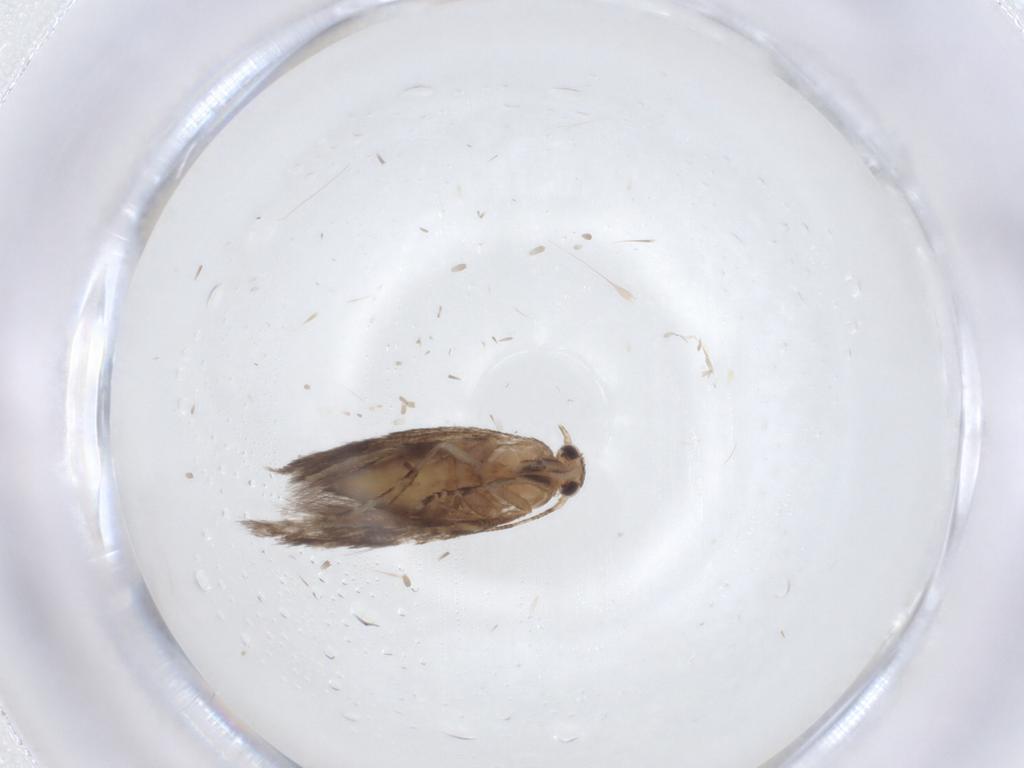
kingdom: Animalia
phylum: Arthropoda
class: Insecta
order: Lepidoptera
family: Elachistidae
